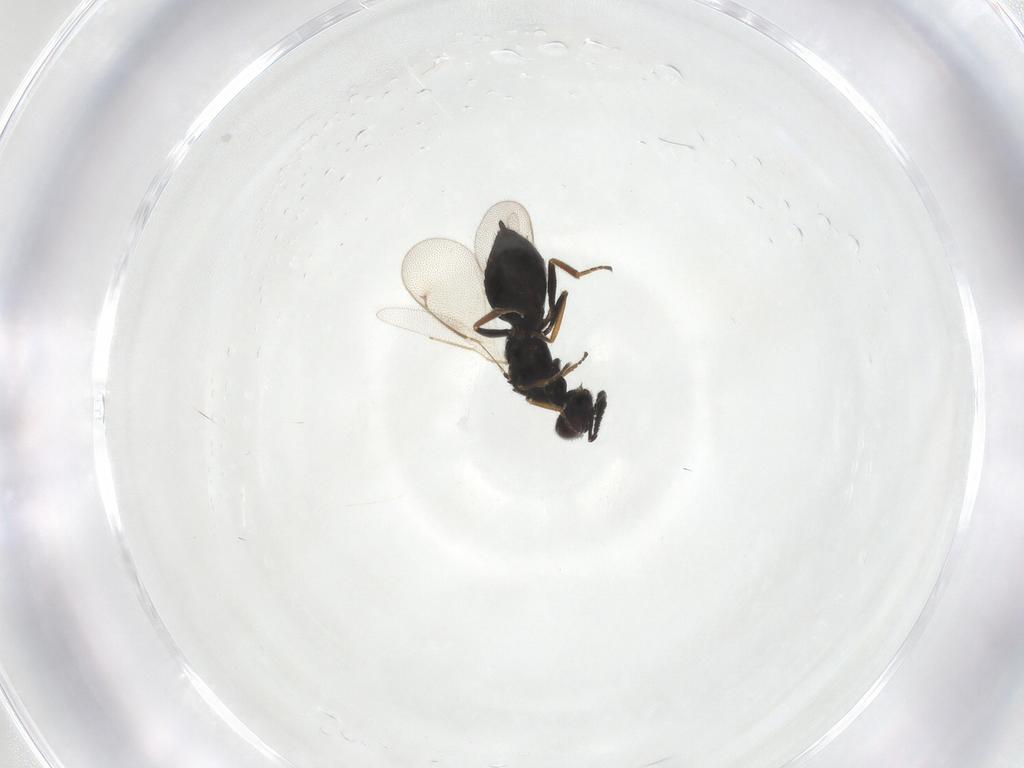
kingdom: Animalia
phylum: Arthropoda
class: Insecta
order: Hymenoptera
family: Eulophidae
